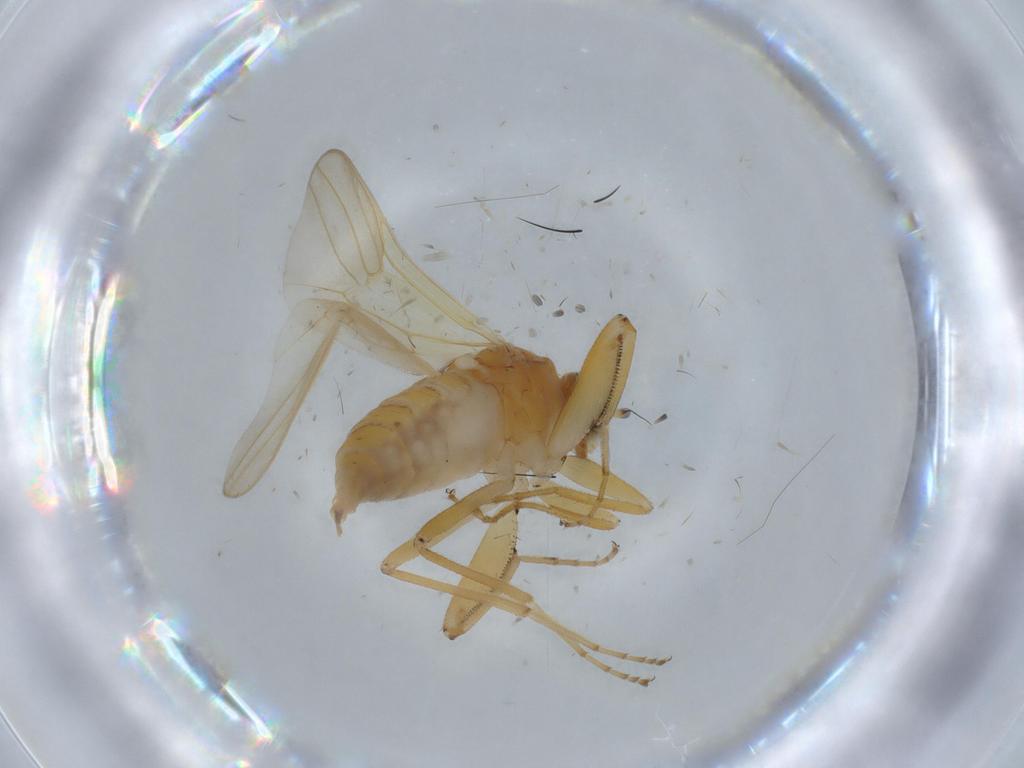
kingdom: Animalia
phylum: Arthropoda
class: Insecta
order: Diptera
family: Hybotidae
